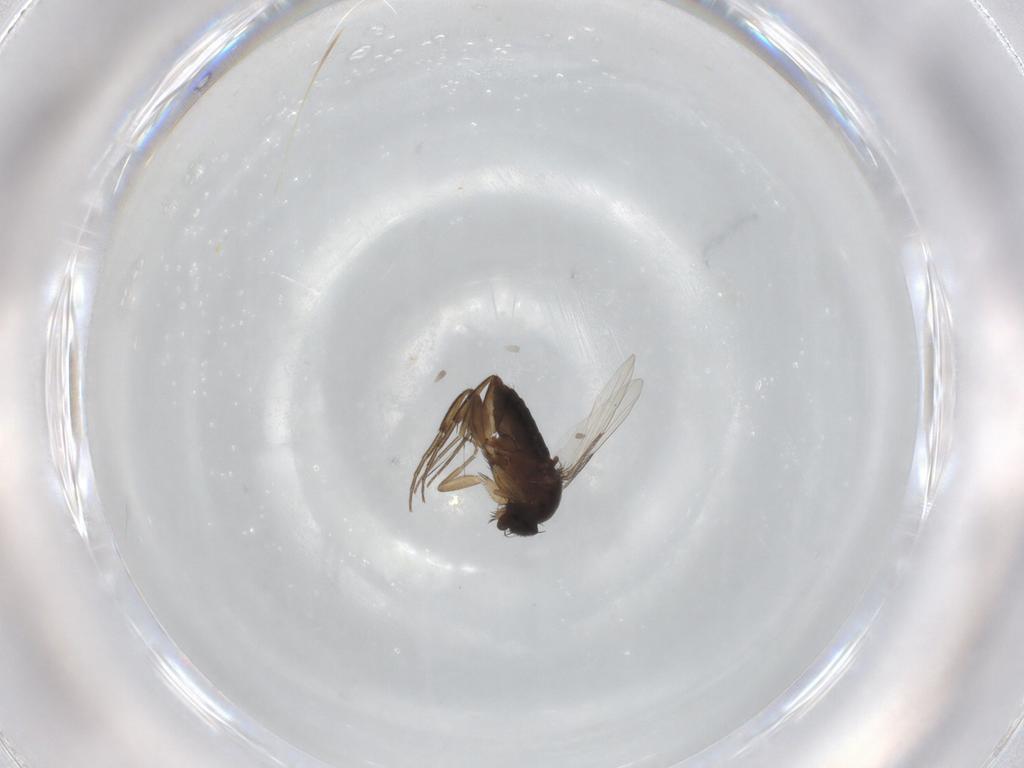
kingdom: Animalia
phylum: Arthropoda
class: Insecta
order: Diptera
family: Phoridae
